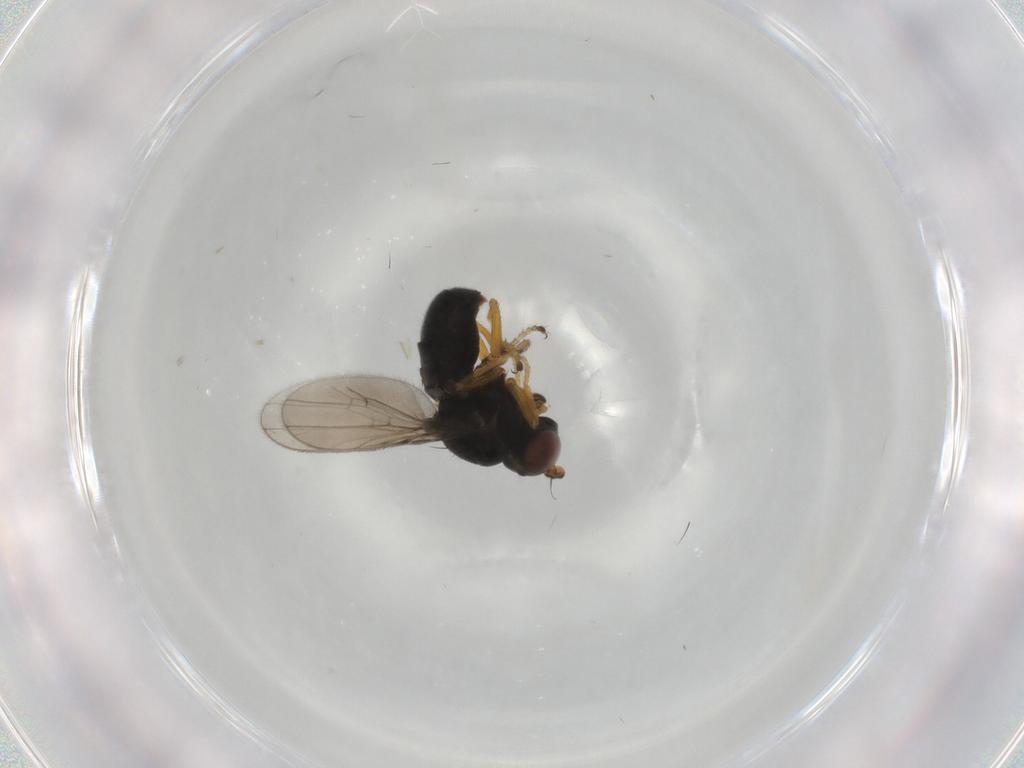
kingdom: Animalia
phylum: Arthropoda
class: Insecta
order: Diptera
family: Ephydridae
